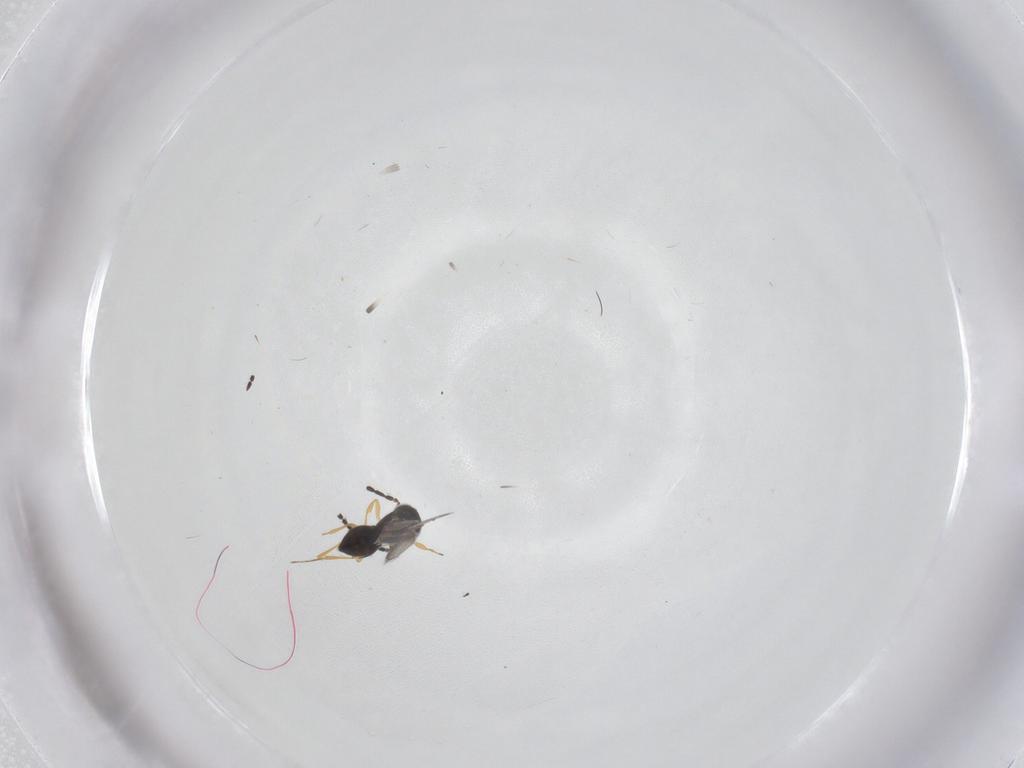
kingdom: Animalia
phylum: Arthropoda
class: Insecta
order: Hymenoptera
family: Scelionidae
